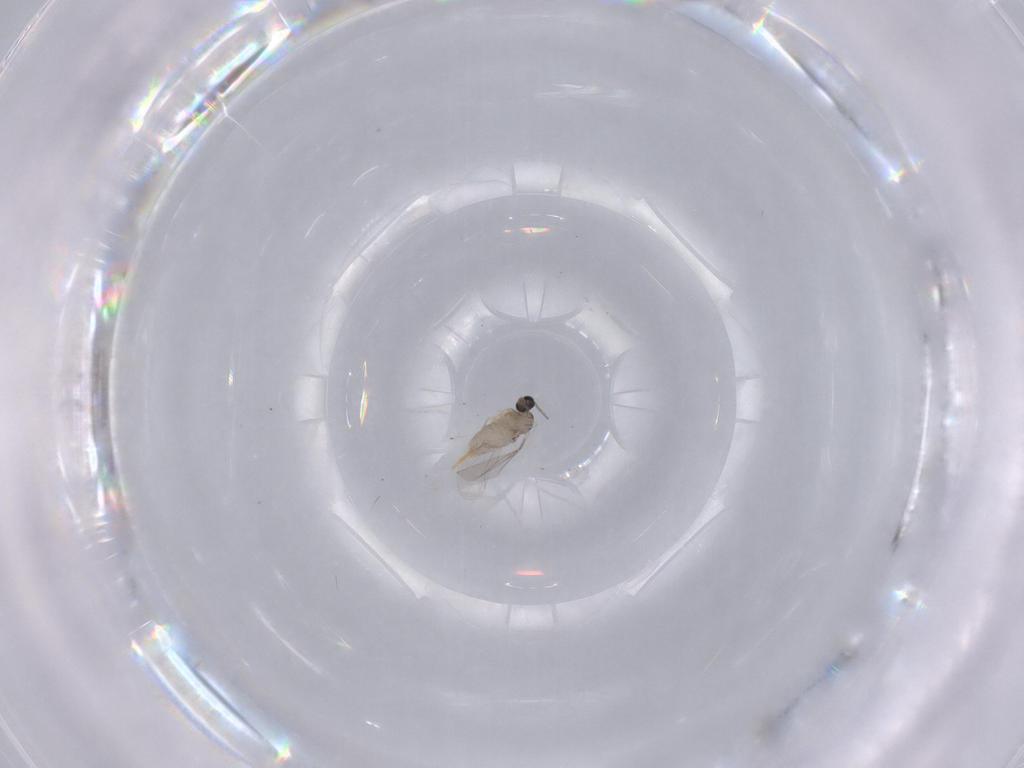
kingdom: Animalia
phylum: Arthropoda
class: Insecta
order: Diptera
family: Cecidomyiidae
